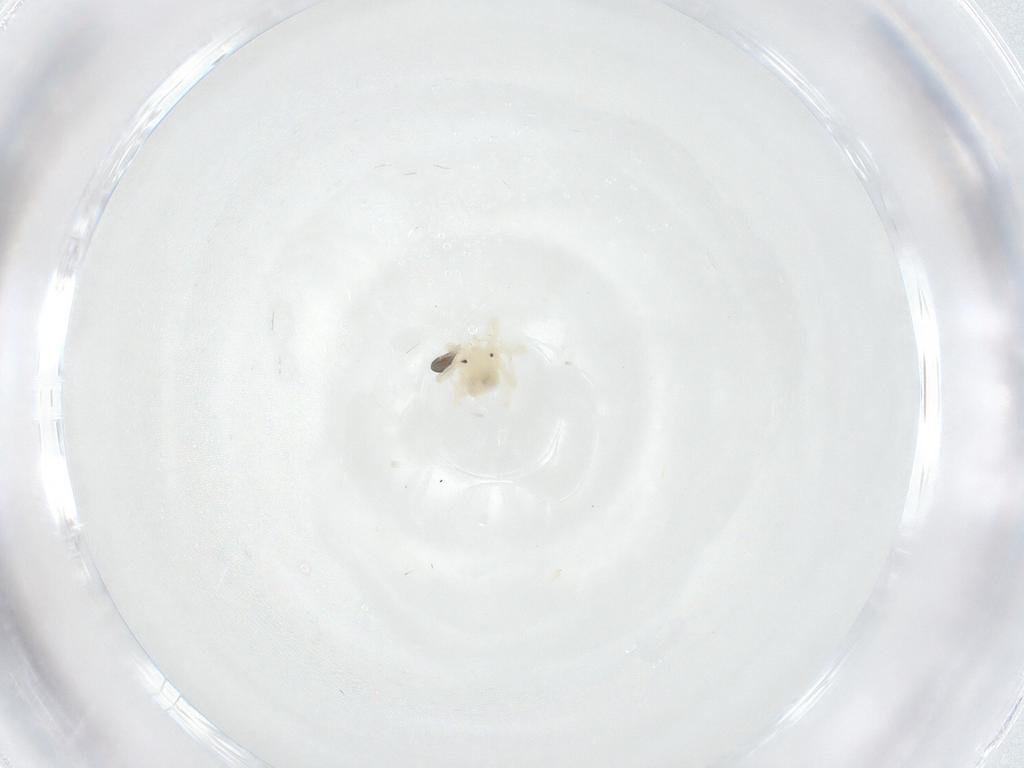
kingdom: Animalia
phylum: Arthropoda
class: Arachnida
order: Trombidiformes
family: Anystidae
